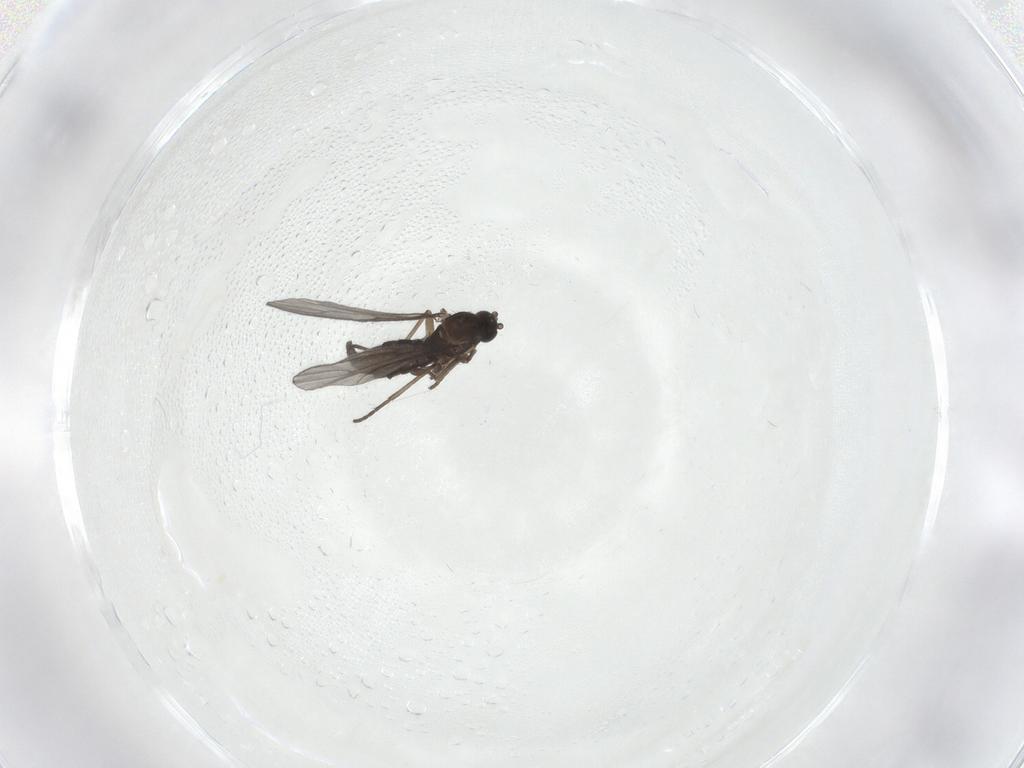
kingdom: Animalia
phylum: Arthropoda
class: Insecta
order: Diptera
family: Cecidomyiidae
